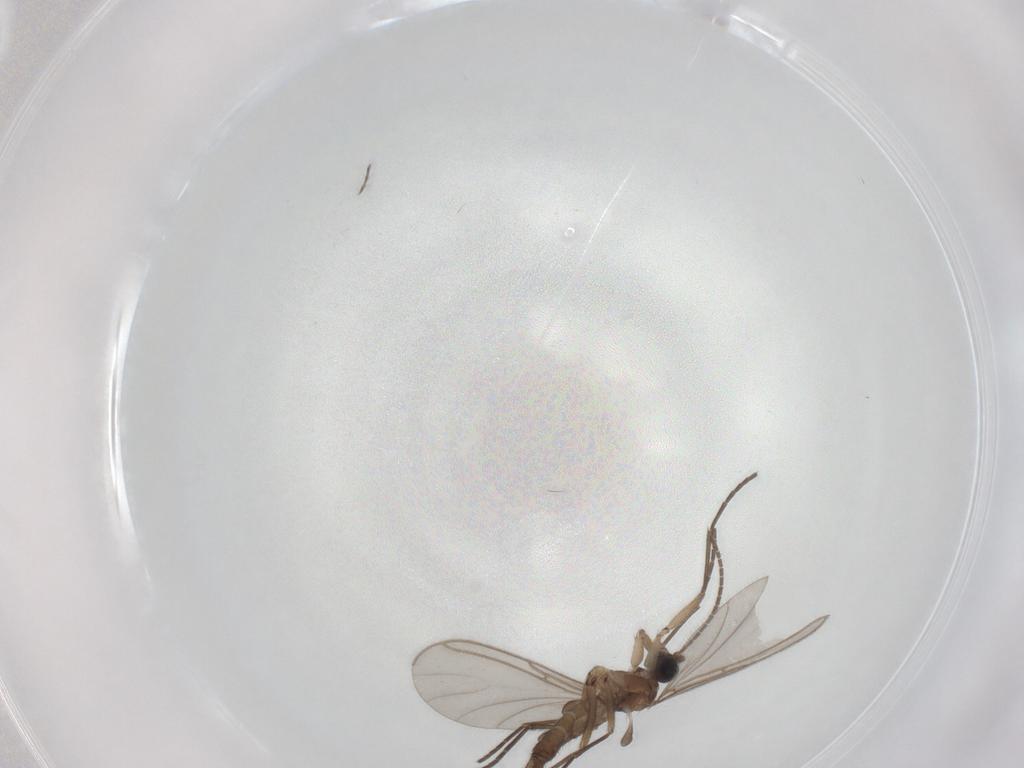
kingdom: Animalia
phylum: Arthropoda
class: Insecta
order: Diptera
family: Sciaridae
